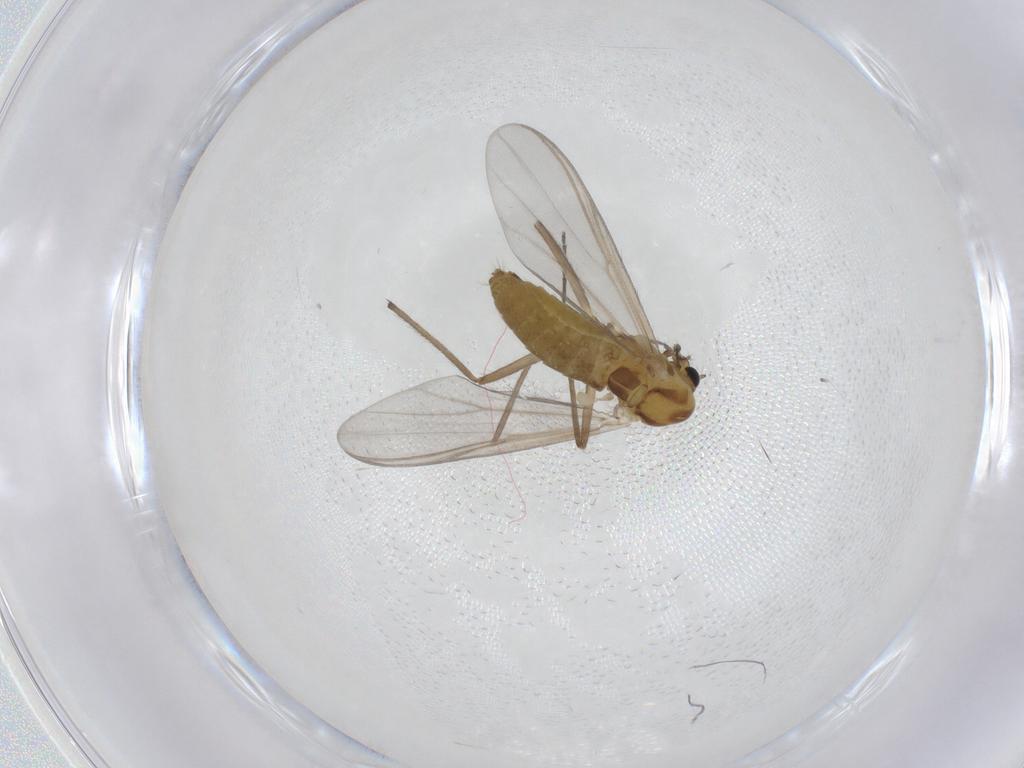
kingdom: Animalia
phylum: Arthropoda
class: Insecta
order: Diptera
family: Chironomidae
